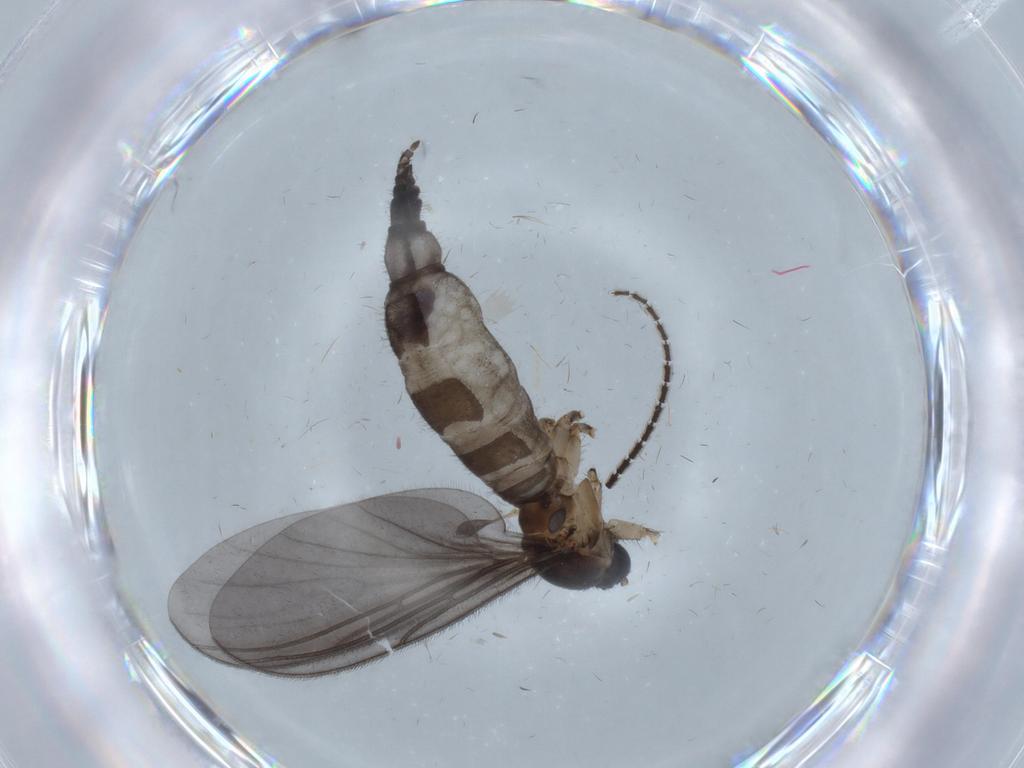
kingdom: Animalia
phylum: Arthropoda
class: Insecta
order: Diptera
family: Cecidomyiidae
